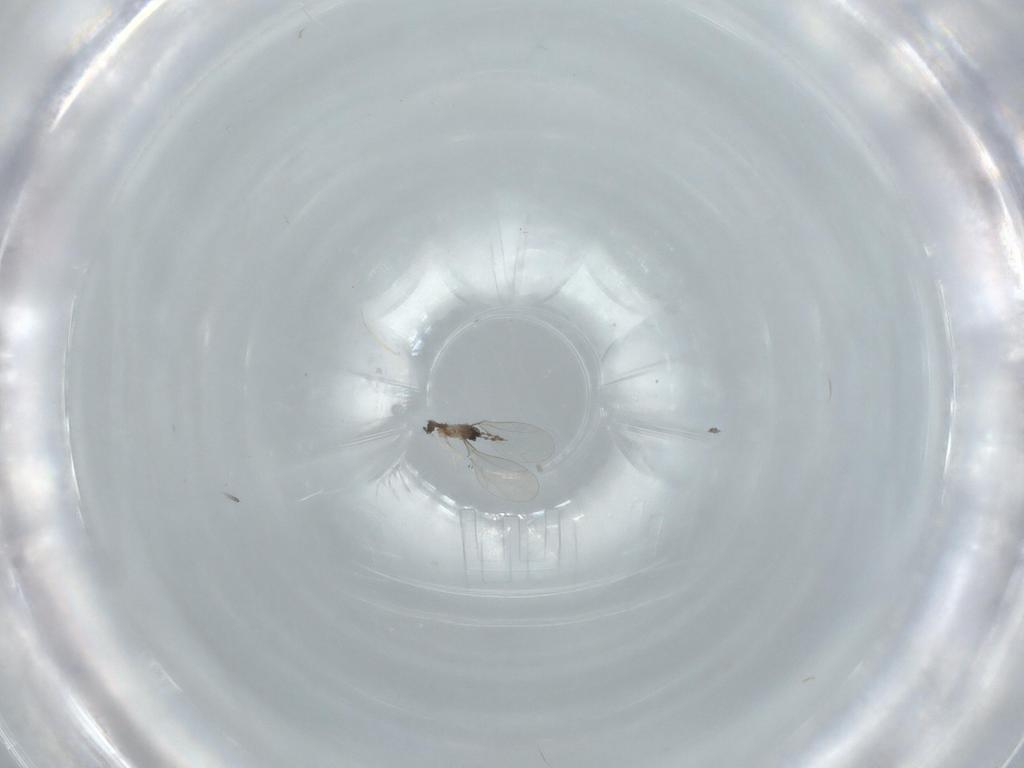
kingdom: Animalia
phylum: Arthropoda
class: Insecta
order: Diptera
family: Cecidomyiidae
